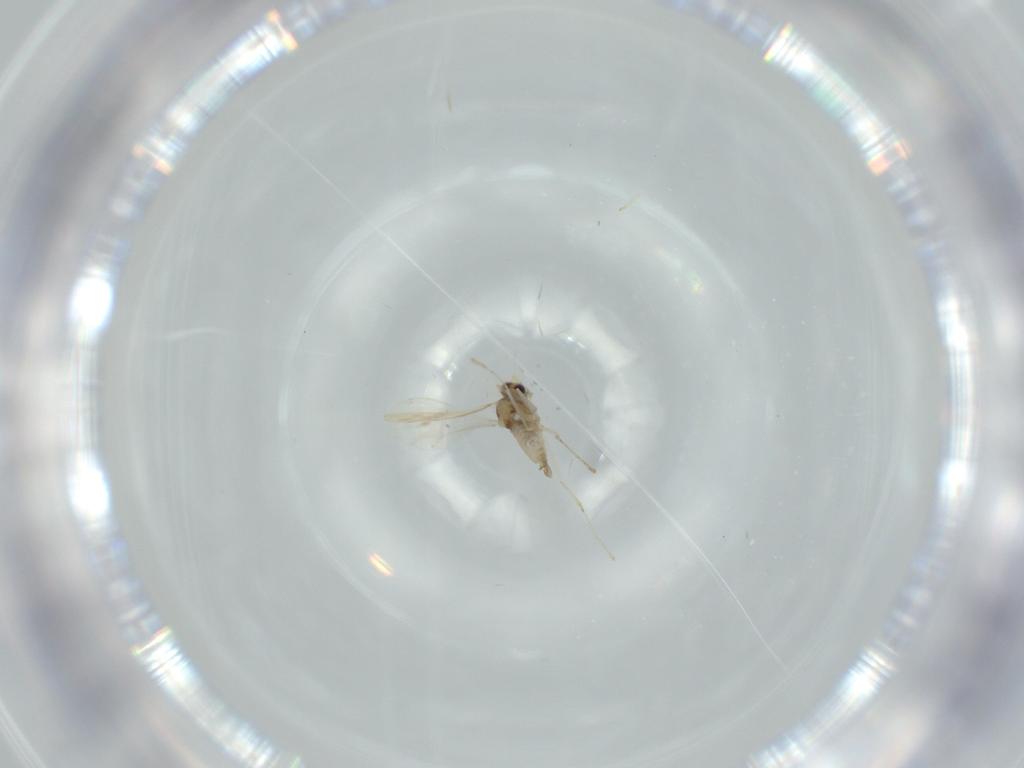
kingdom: Animalia
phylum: Arthropoda
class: Insecta
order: Diptera
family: Cecidomyiidae
